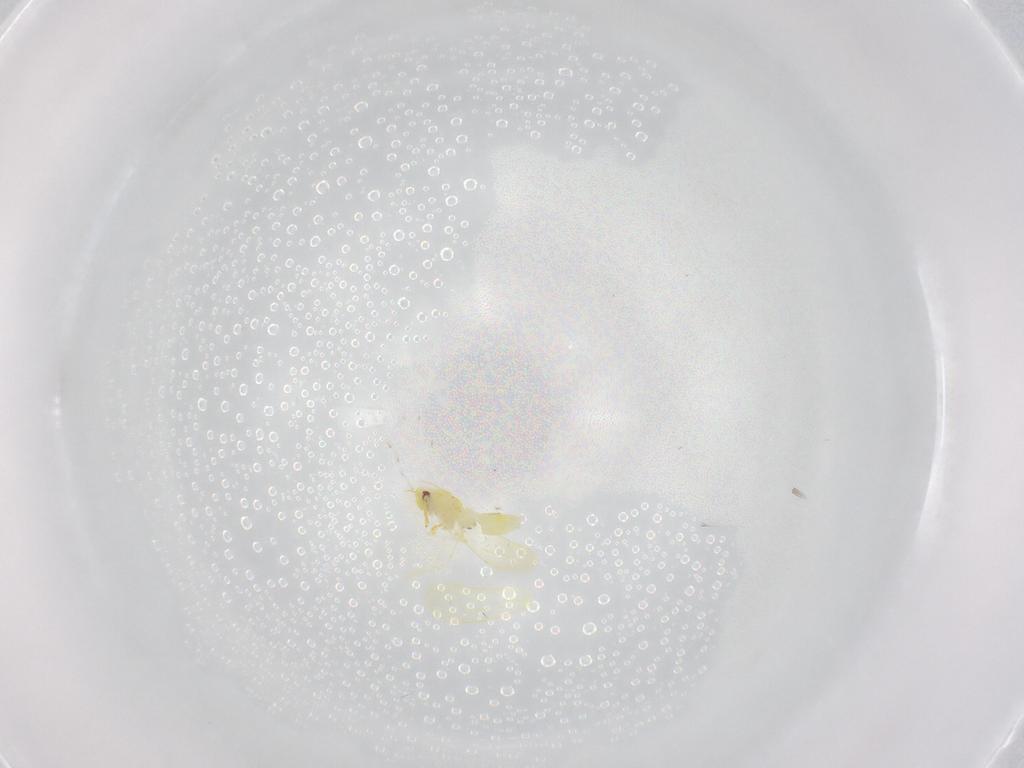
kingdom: Animalia
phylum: Arthropoda
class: Insecta
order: Hemiptera
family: Aleyrodidae
